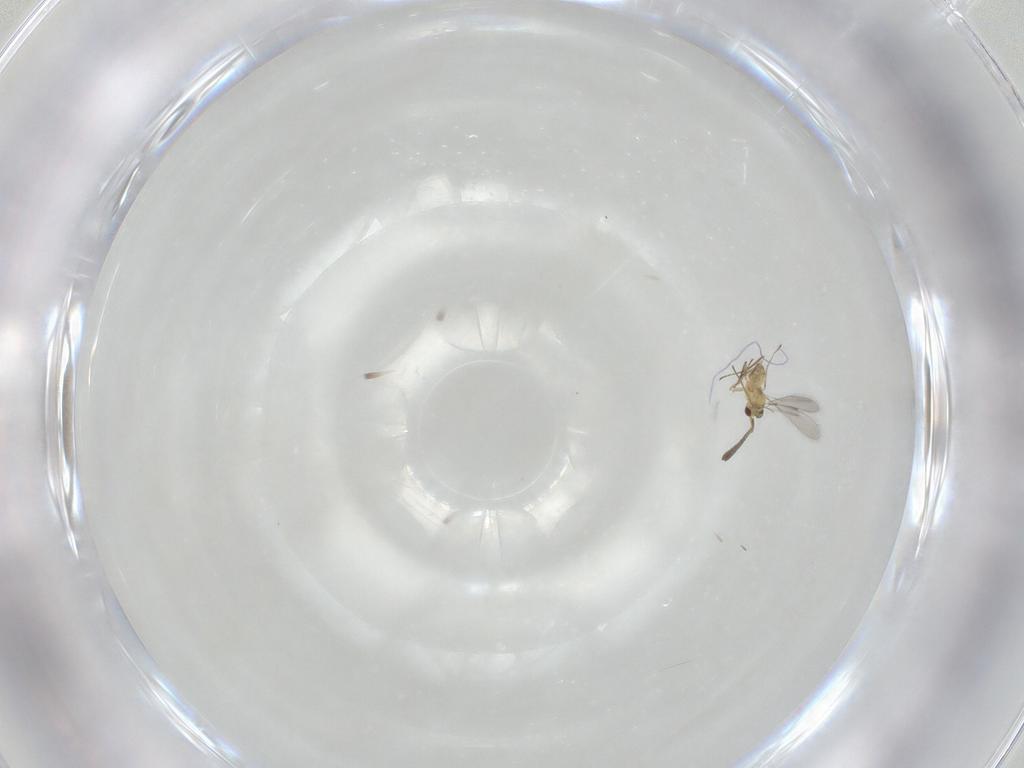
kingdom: Animalia
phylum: Arthropoda
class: Insecta
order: Hymenoptera
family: Mymaridae
